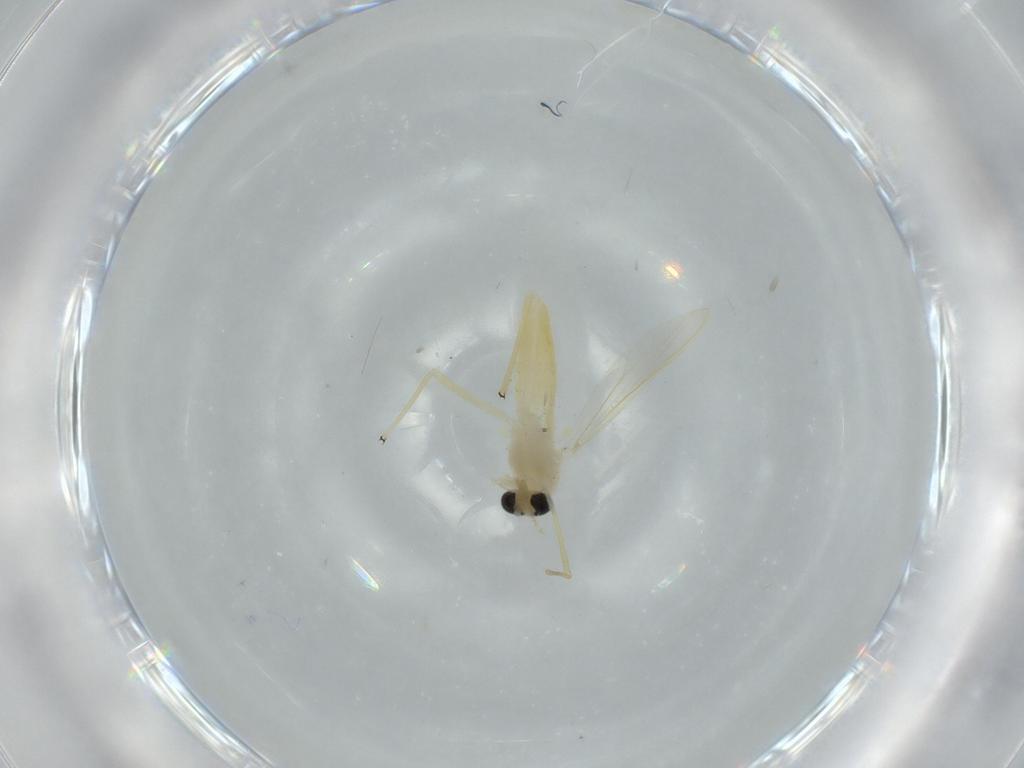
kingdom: Animalia
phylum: Arthropoda
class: Insecta
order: Diptera
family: Chironomidae
